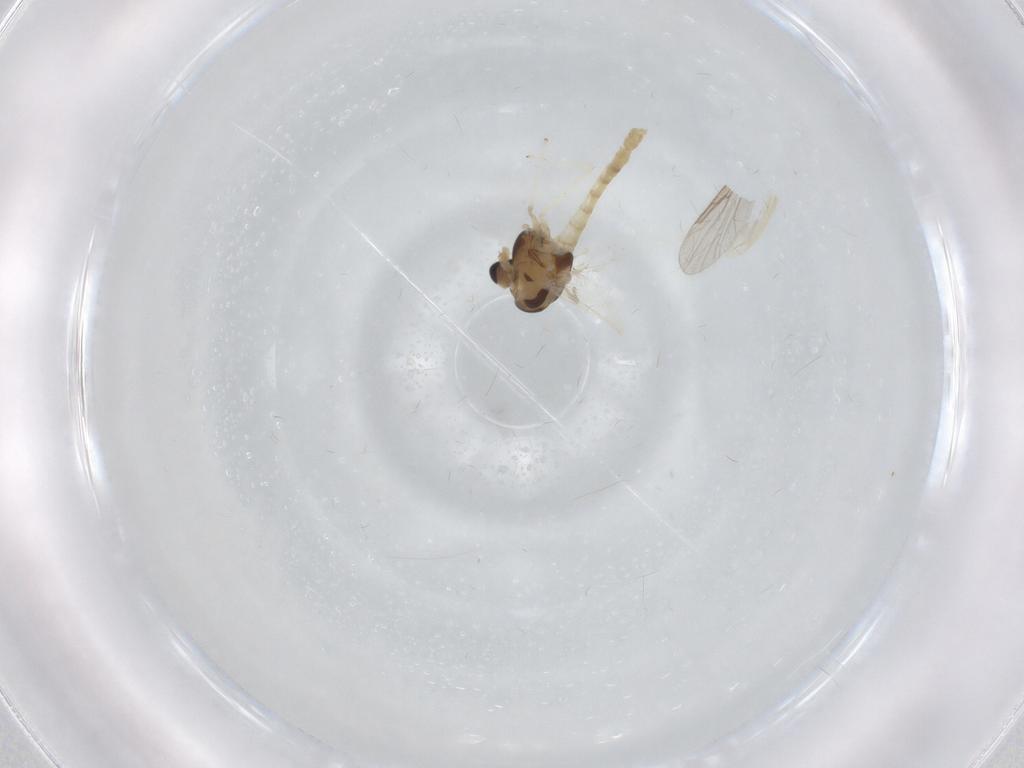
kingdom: Animalia
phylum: Arthropoda
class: Insecta
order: Diptera
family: Chironomidae
